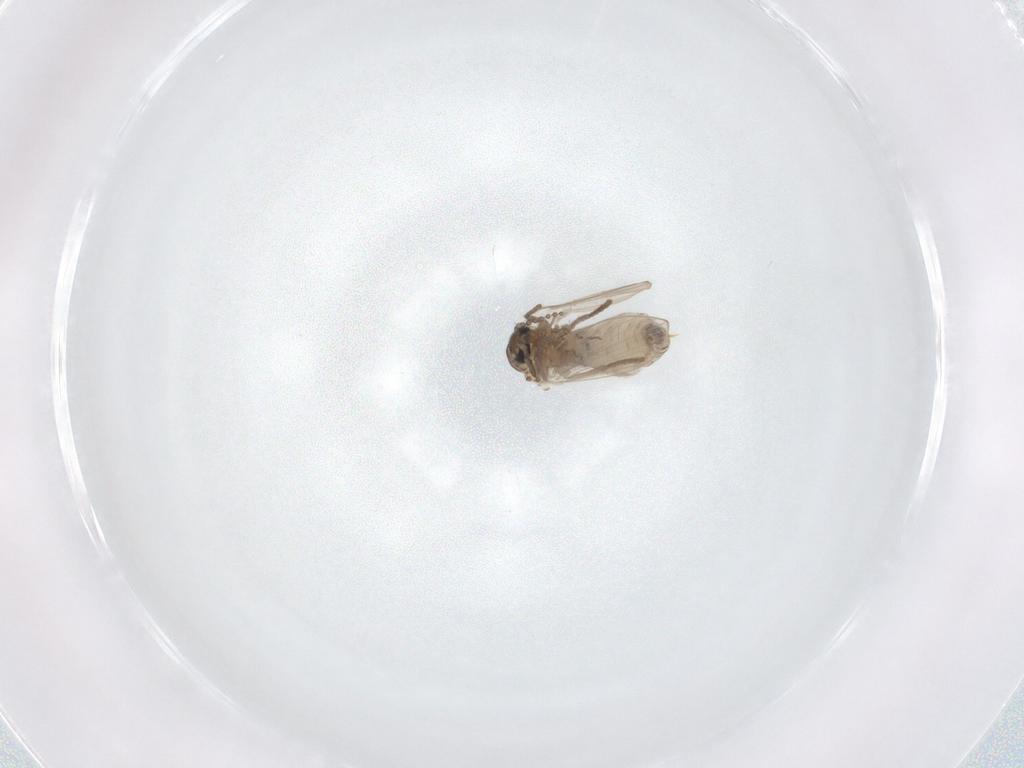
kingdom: Animalia
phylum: Arthropoda
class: Insecta
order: Diptera
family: Psychodidae
